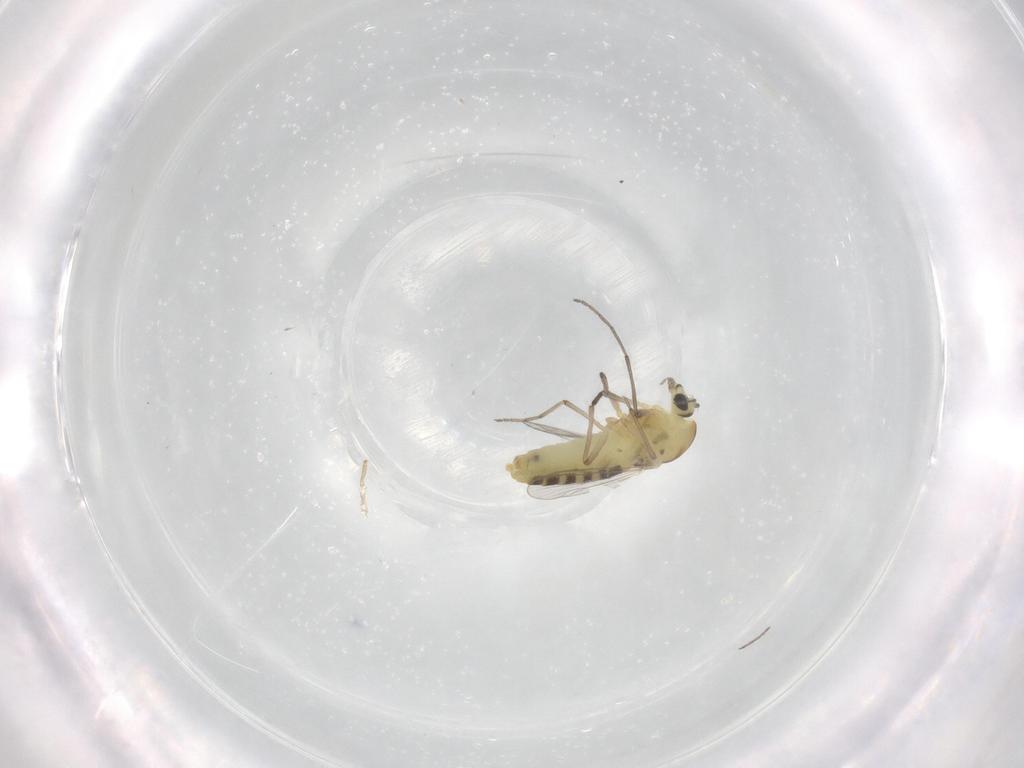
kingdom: Animalia
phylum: Arthropoda
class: Insecta
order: Diptera
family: Chironomidae
